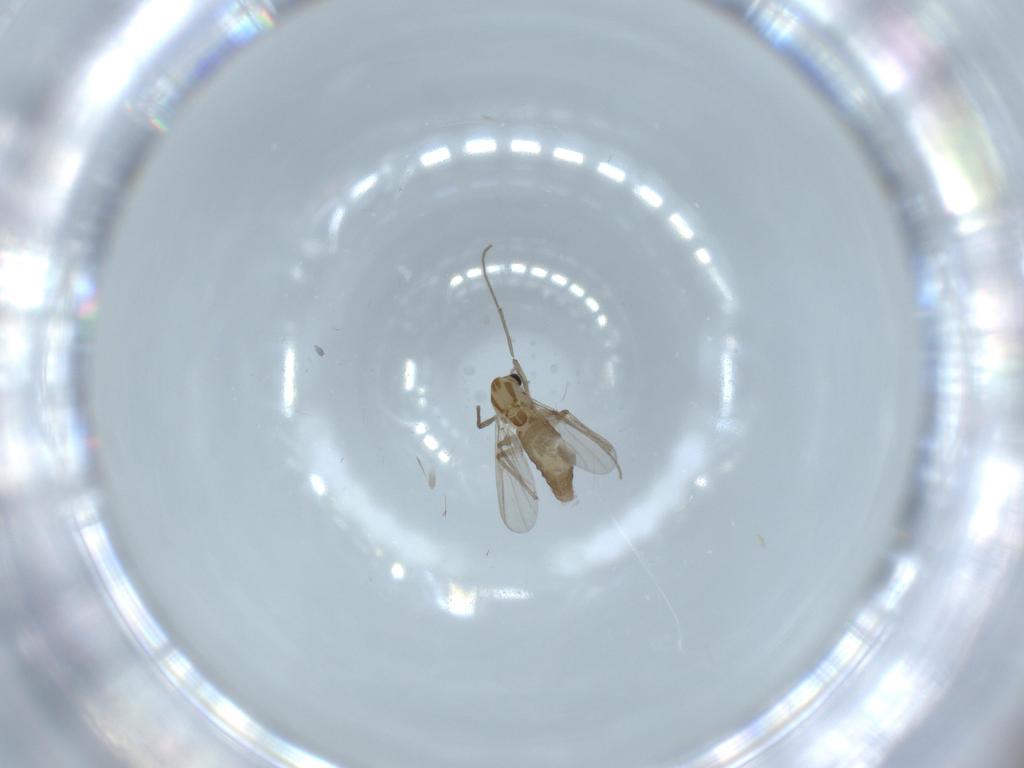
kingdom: Animalia
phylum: Arthropoda
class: Insecta
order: Diptera
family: Chironomidae
